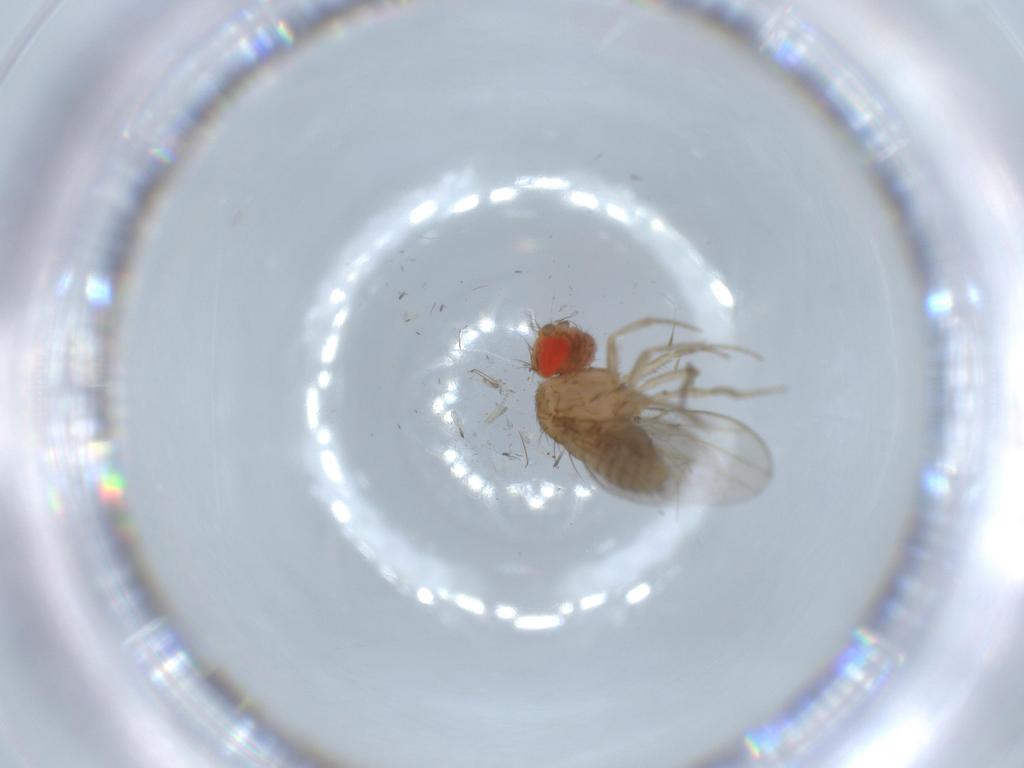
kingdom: Animalia
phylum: Arthropoda
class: Insecta
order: Diptera
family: Drosophilidae
